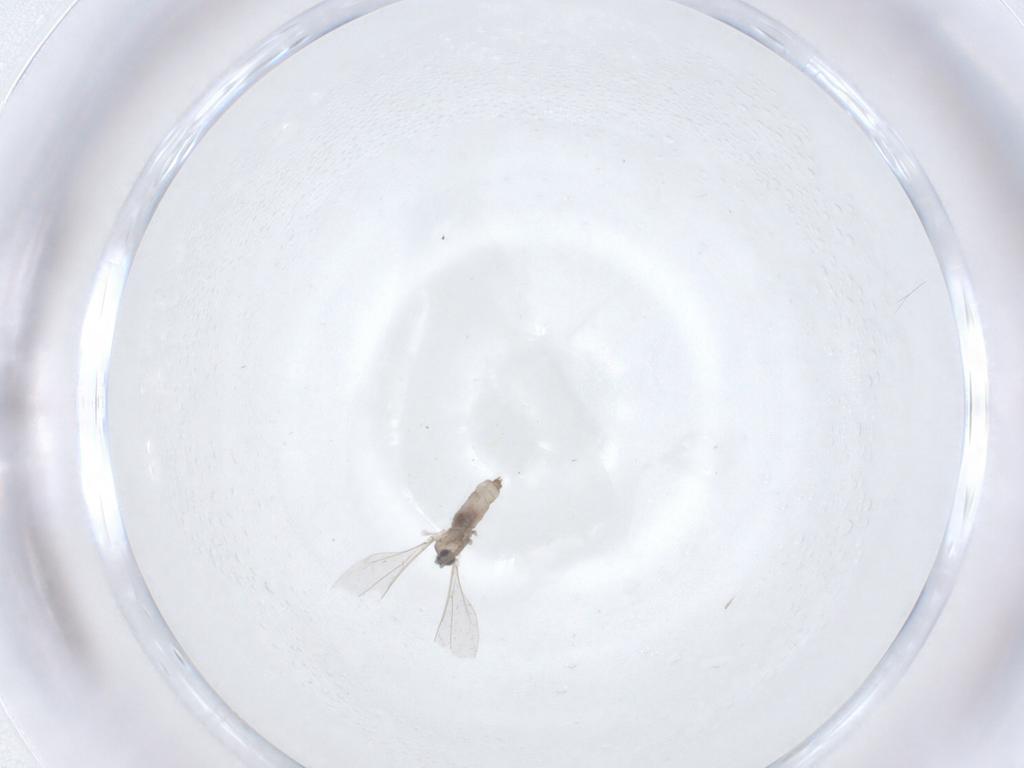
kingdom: Animalia
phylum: Arthropoda
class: Insecta
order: Diptera
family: Cecidomyiidae
